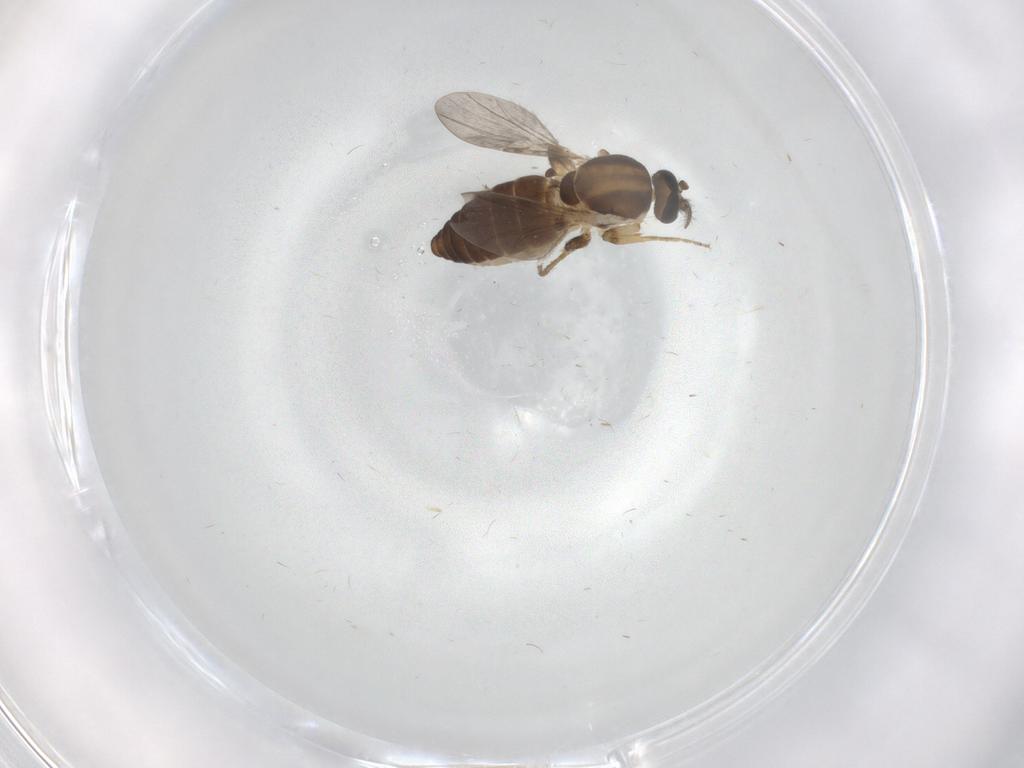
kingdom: Animalia
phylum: Arthropoda
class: Insecta
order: Diptera
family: Ceratopogonidae
